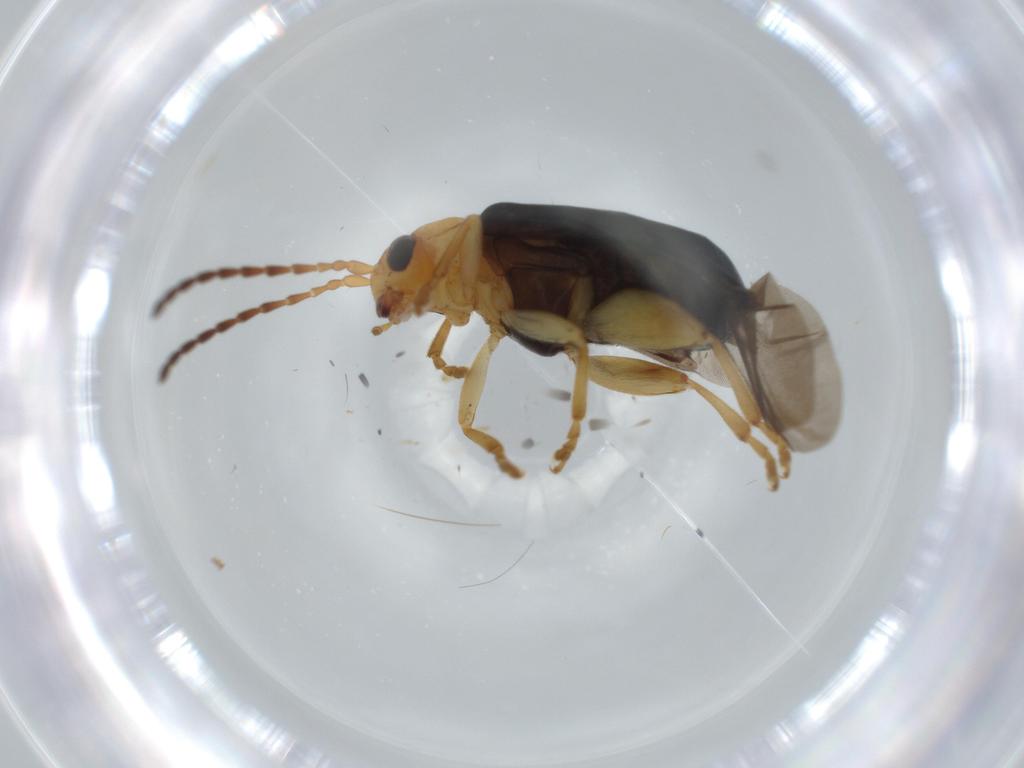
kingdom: Animalia
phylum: Arthropoda
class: Insecta
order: Coleoptera
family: Chrysomelidae
